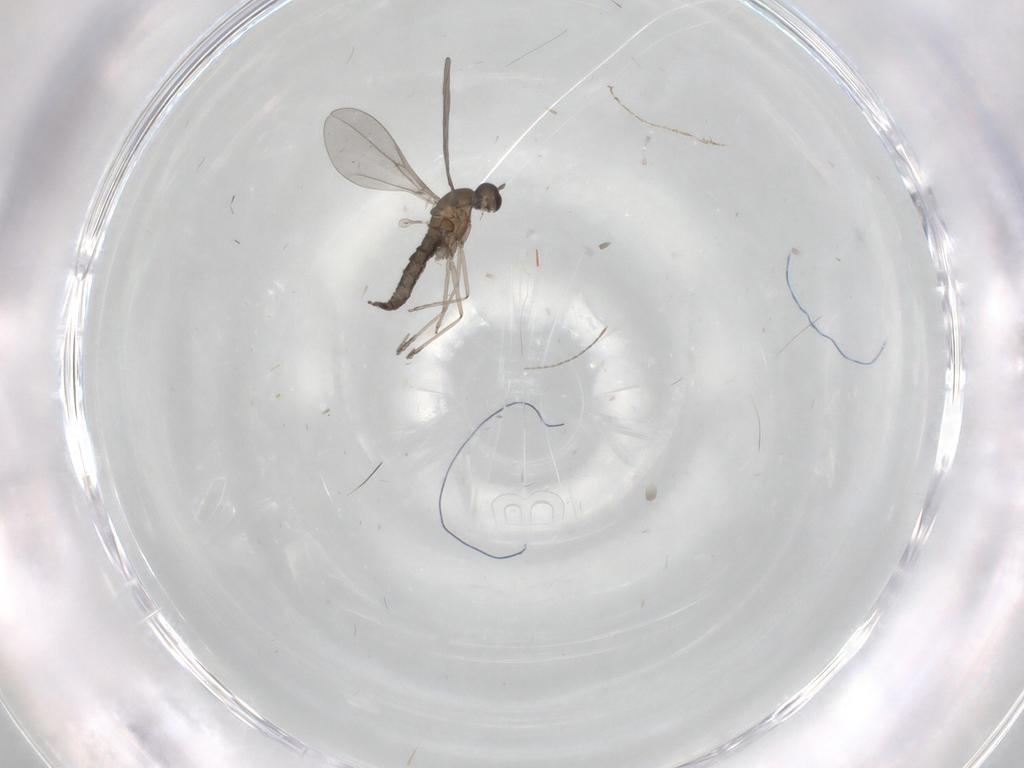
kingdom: Animalia
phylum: Arthropoda
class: Insecta
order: Diptera
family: Cecidomyiidae
